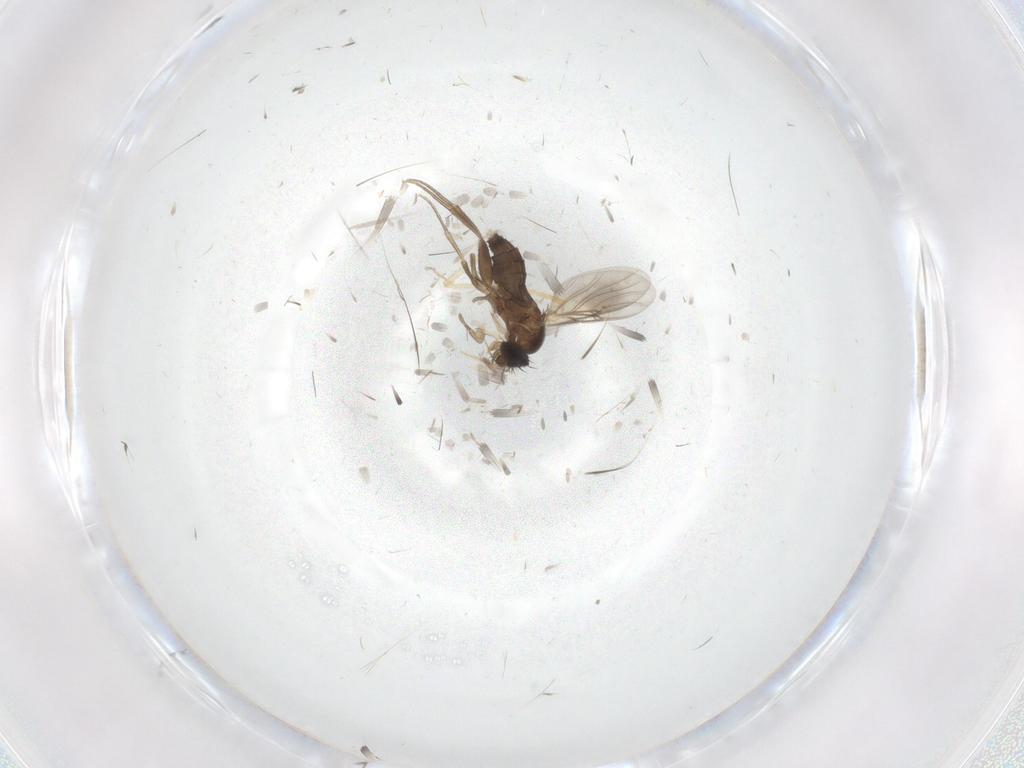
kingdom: Animalia
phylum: Arthropoda
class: Insecta
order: Diptera
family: Phoridae
